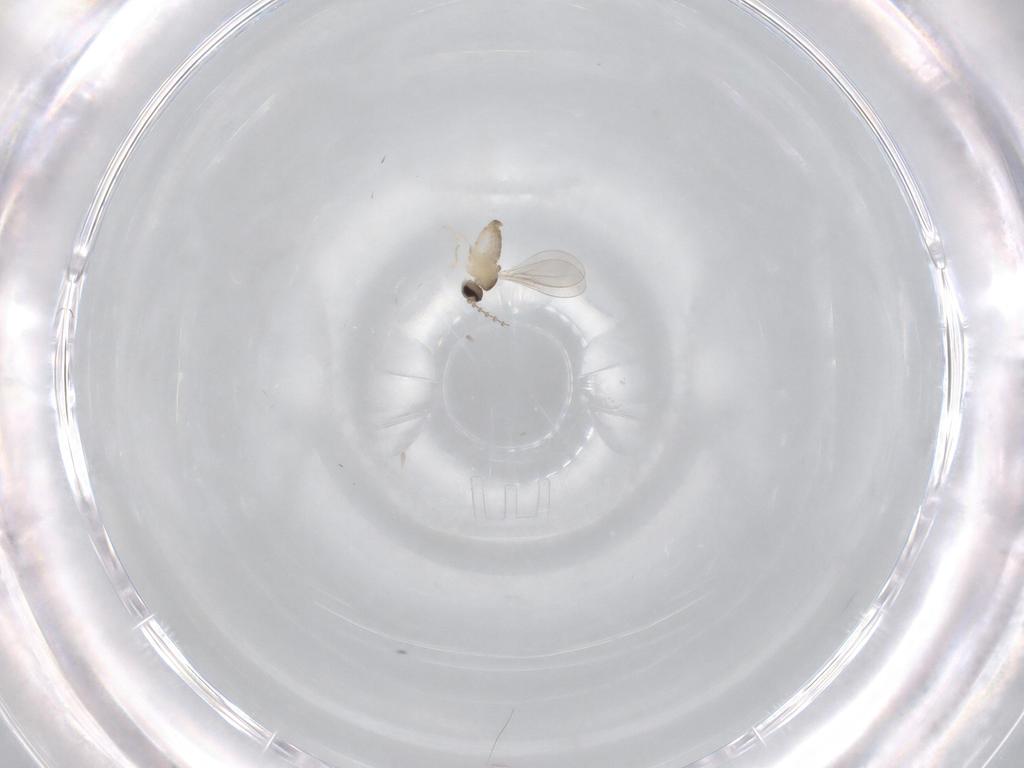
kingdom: Animalia
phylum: Arthropoda
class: Insecta
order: Diptera
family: Cecidomyiidae
